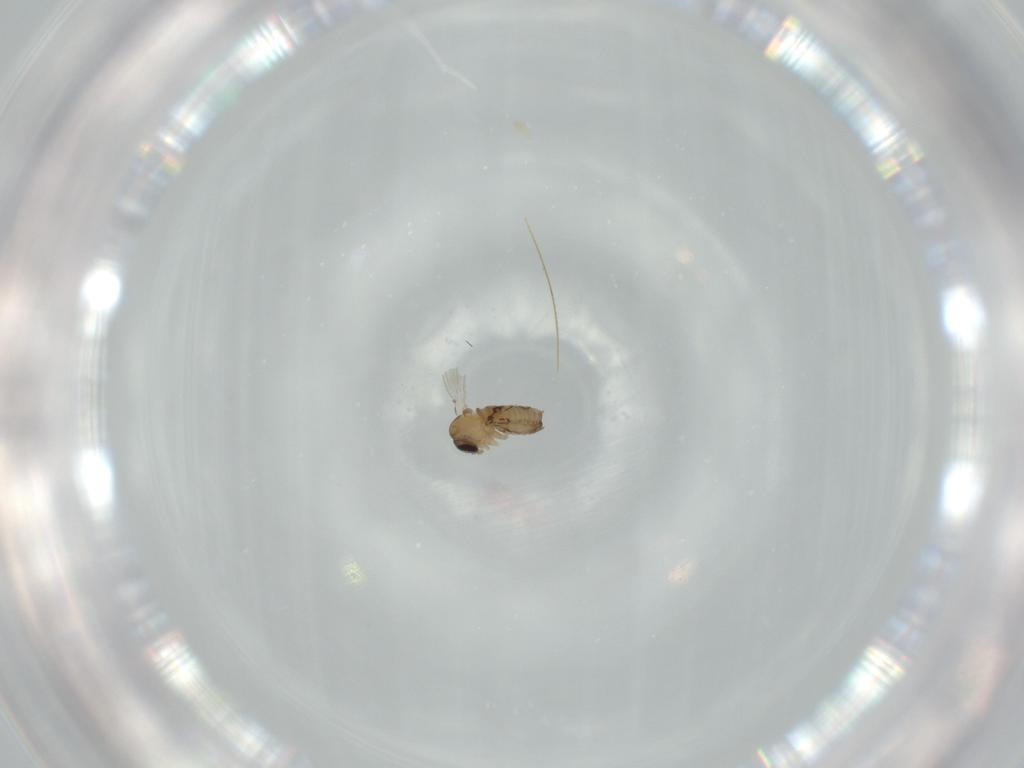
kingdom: Animalia
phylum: Arthropoda
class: Insecta
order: Diptera
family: Psychodidae
